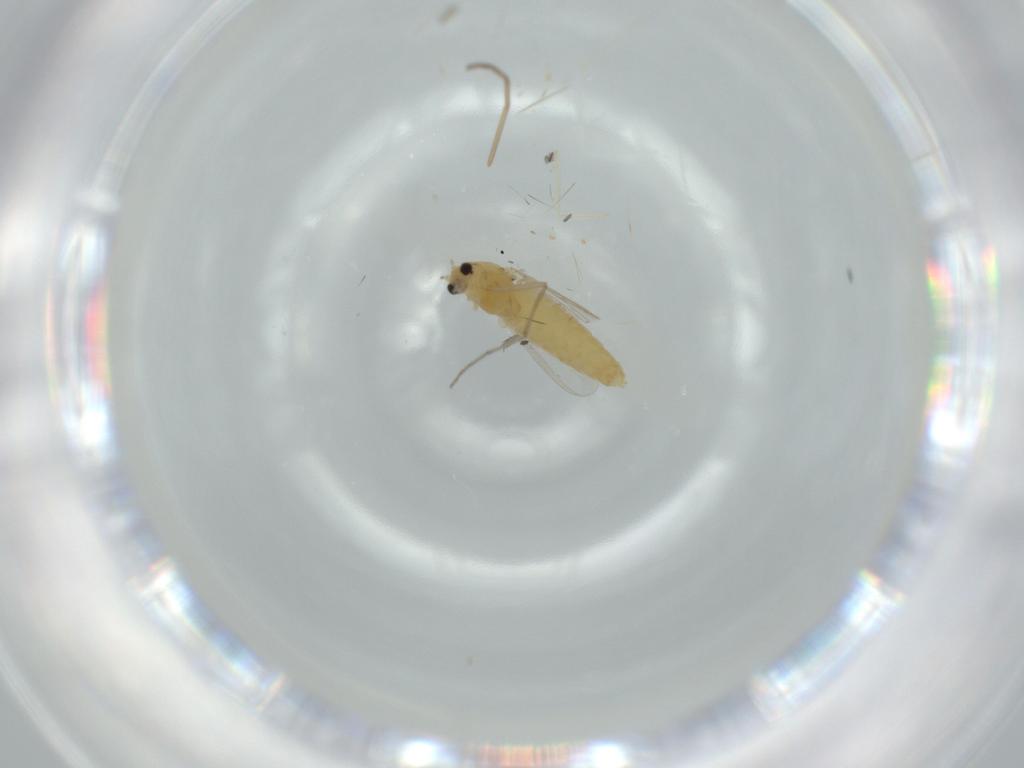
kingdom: Animalia
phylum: Arthropoda
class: Insecta
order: Diptera
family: Chironomidae
